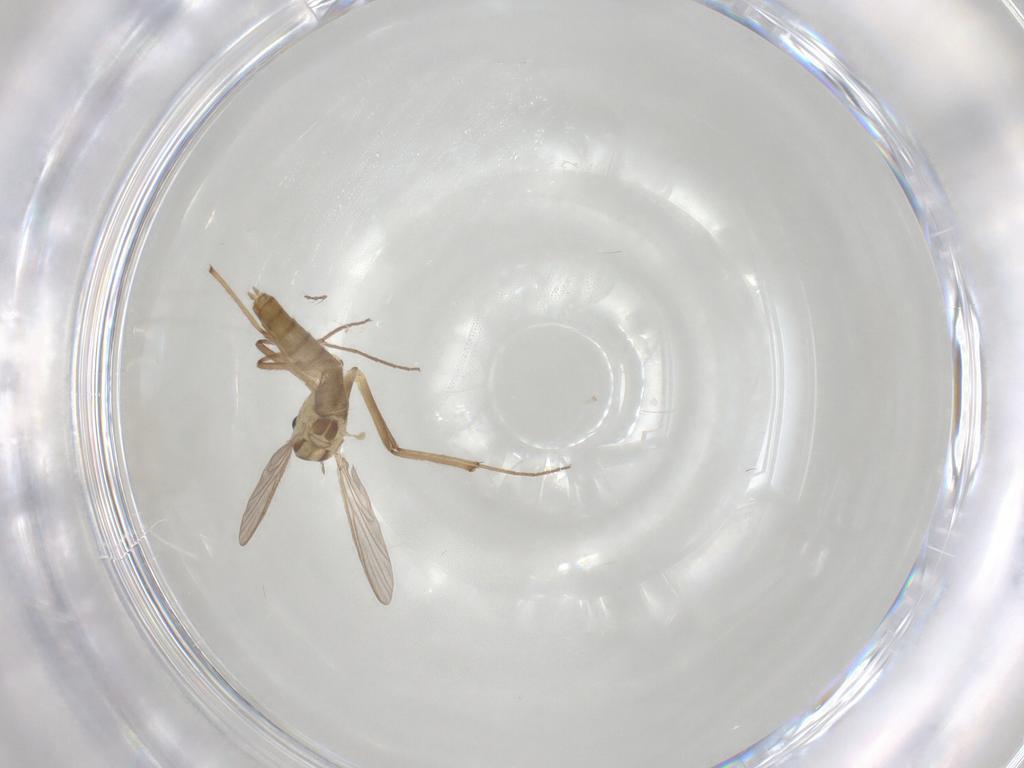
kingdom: Animalia
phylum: Arthropoda
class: Insecta
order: Diptera
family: Chironomidae
